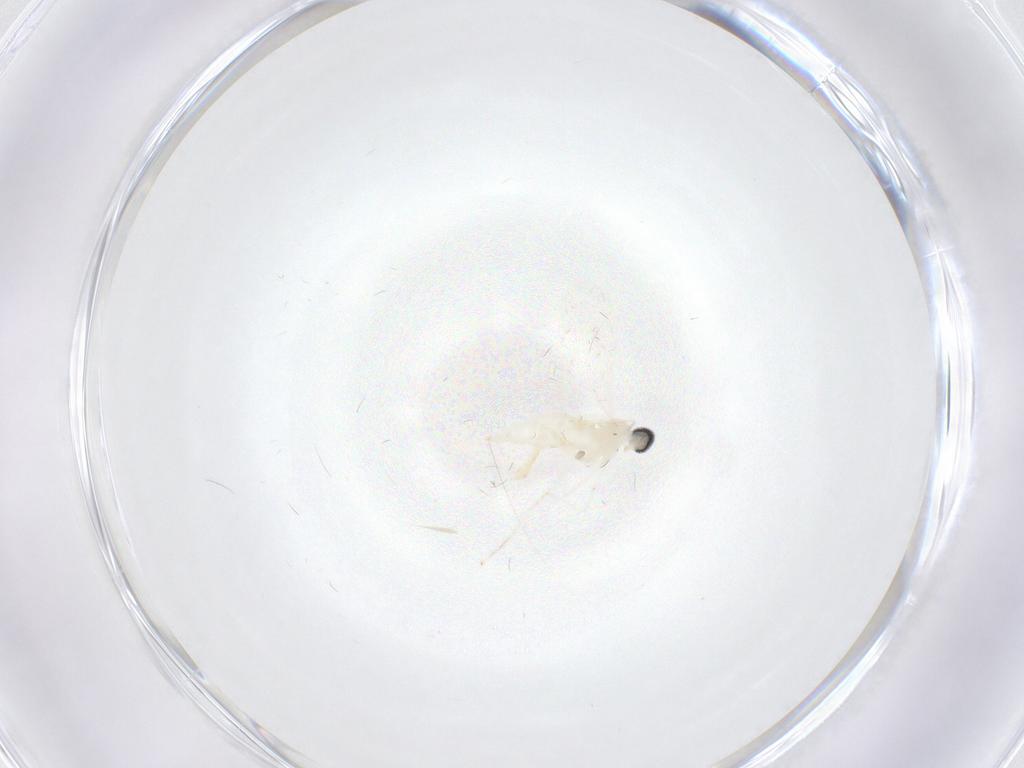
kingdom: Animalia
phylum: Arthropoda
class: Insecta
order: Diptera
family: Cecidomyiidae
